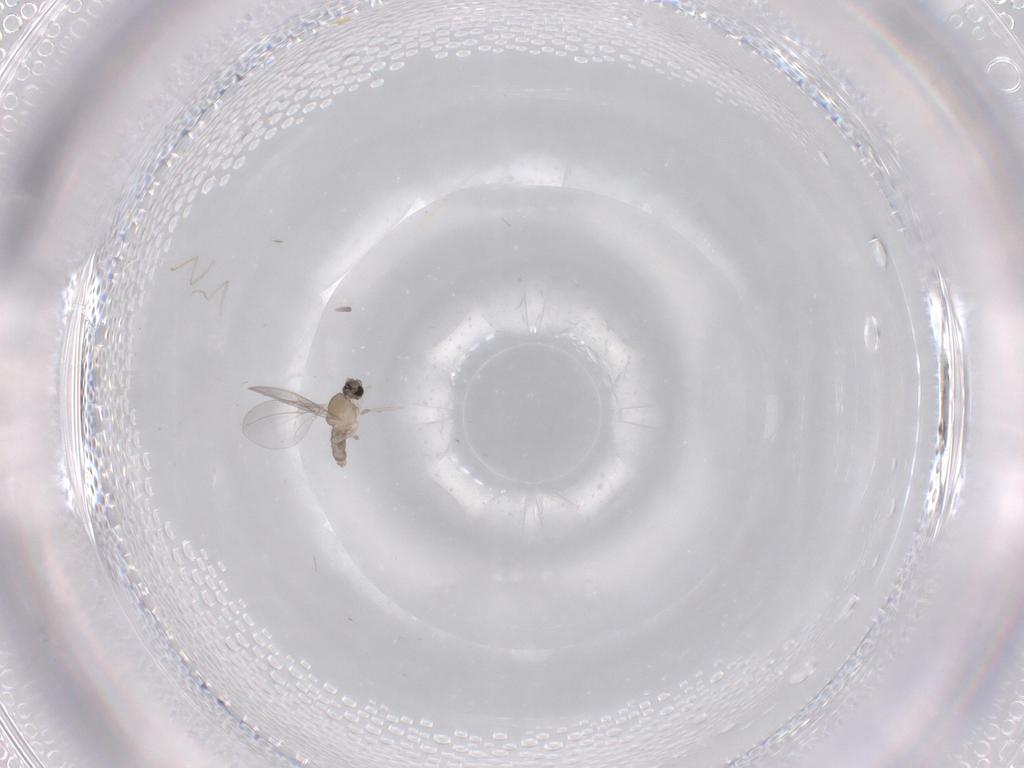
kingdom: Animalia
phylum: Arthropoda
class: Insecta
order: Diptera
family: Cecidomyiidae
